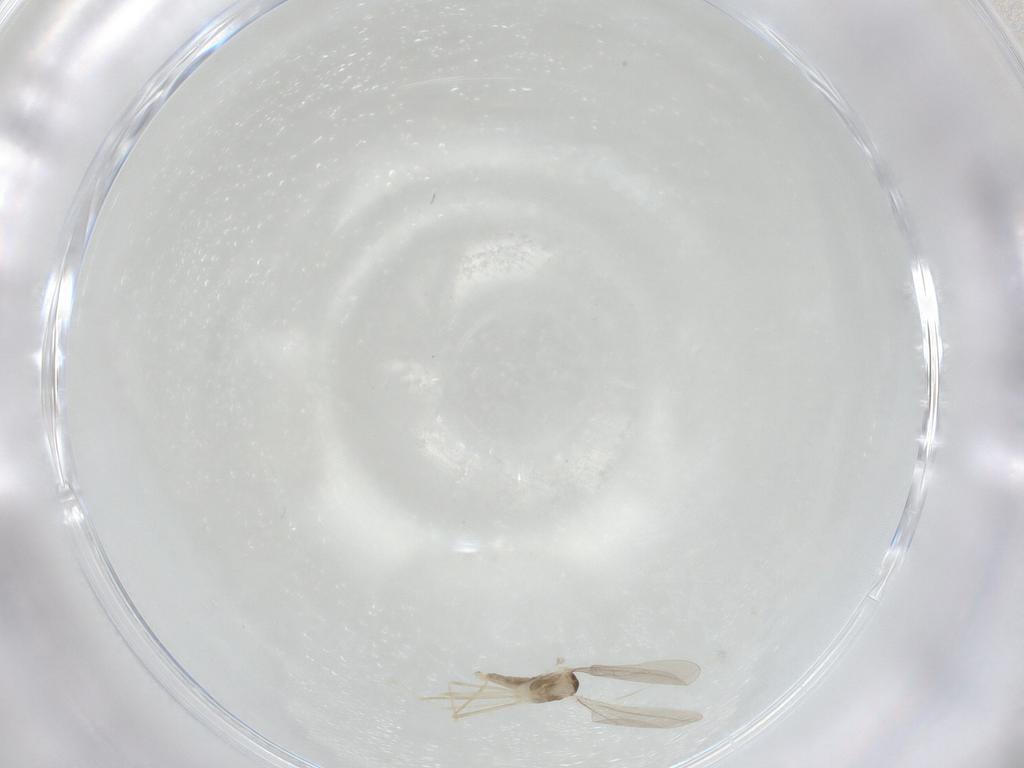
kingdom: Animalia
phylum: Arthropoda
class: Insecta
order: Diptera
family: Cecidomyiidae
